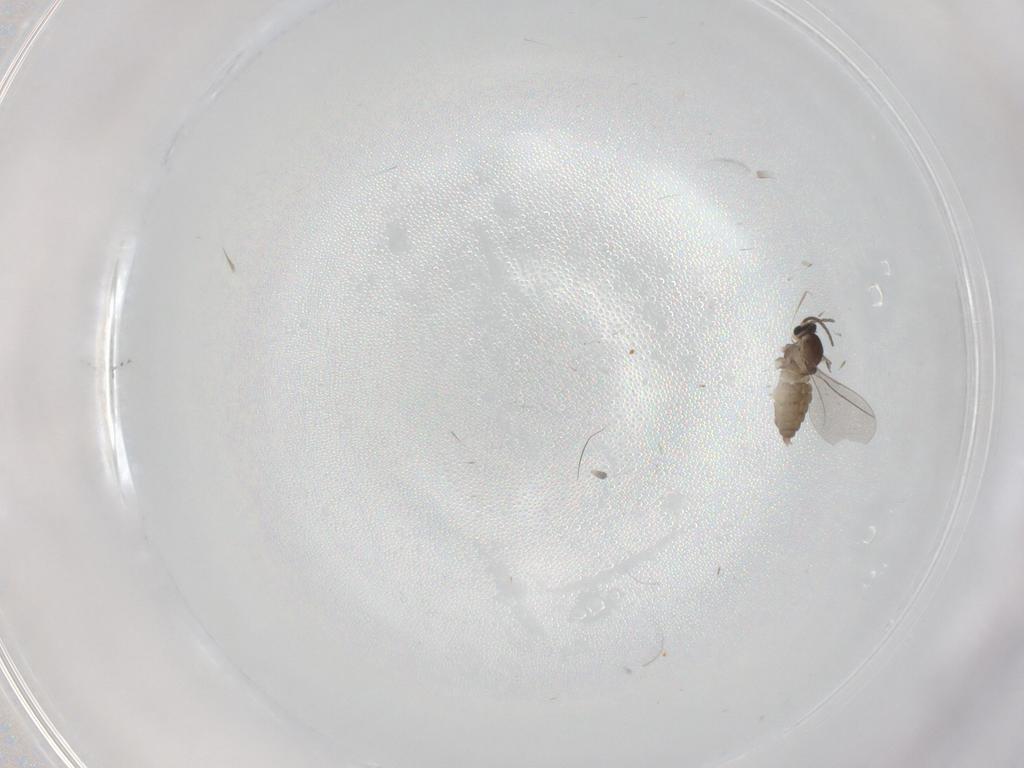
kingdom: Animalia
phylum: Arthropoda
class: Insecta
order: Diptera
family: Cecidomyiidae
